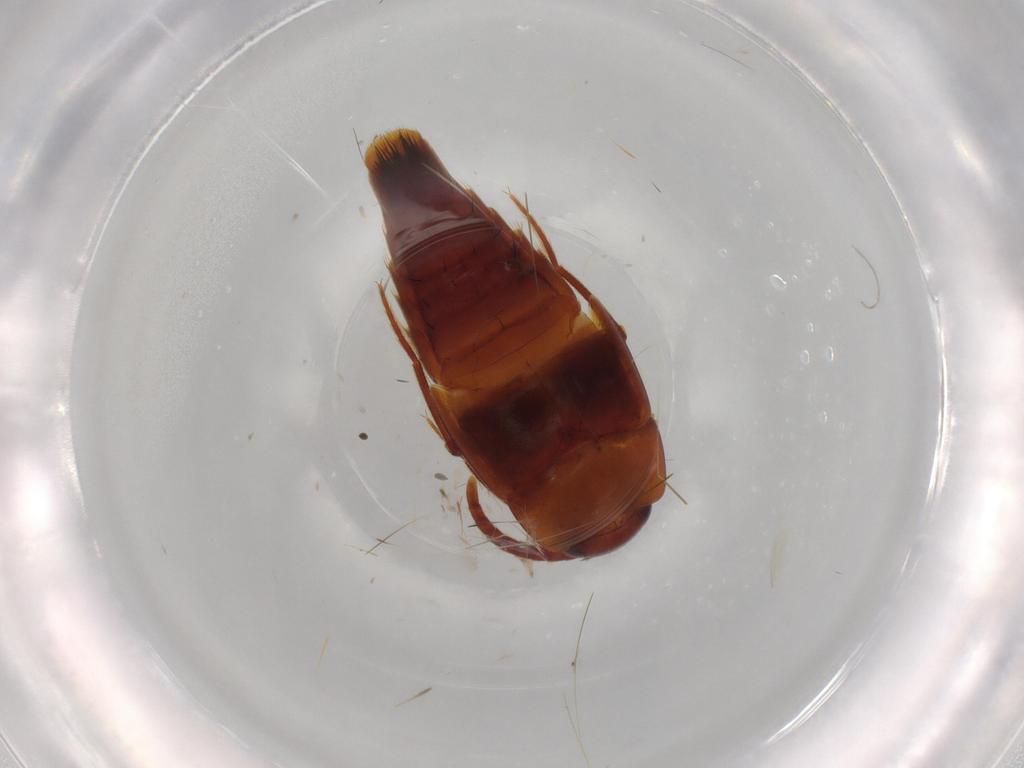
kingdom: Animalia
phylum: Arthropoda
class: Insecta
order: Coleoptera
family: Staphylinidae
